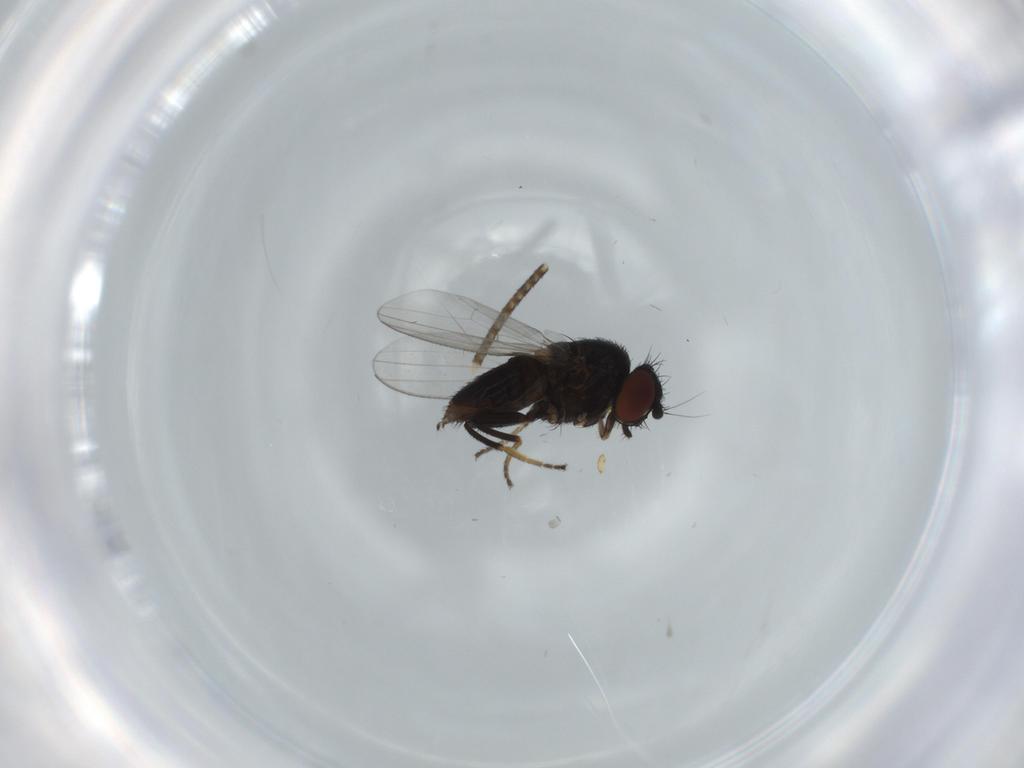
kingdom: Animalia
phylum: Arthropoda
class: Insecta
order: Diptera
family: Milichiidae
